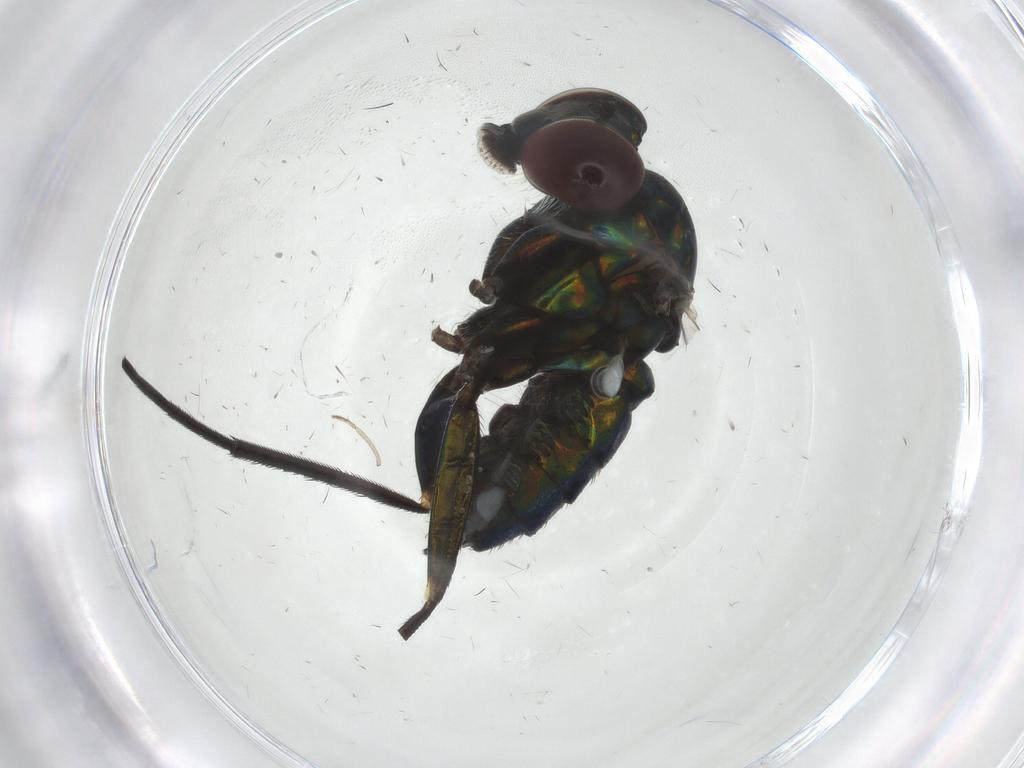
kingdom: Animalia
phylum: Arthropoda
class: Insecta
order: Diptera
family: Dolichopodidae
